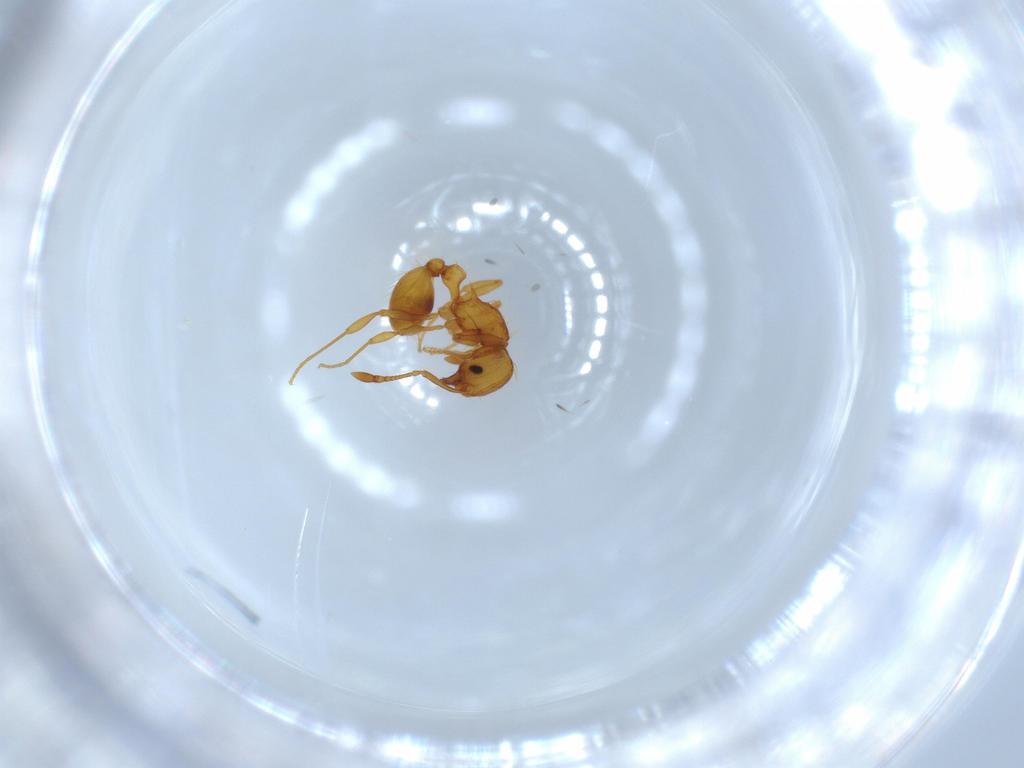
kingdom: Animalia
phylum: Arthropoda
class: Insecta
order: Hymenoptera
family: Formicidae
